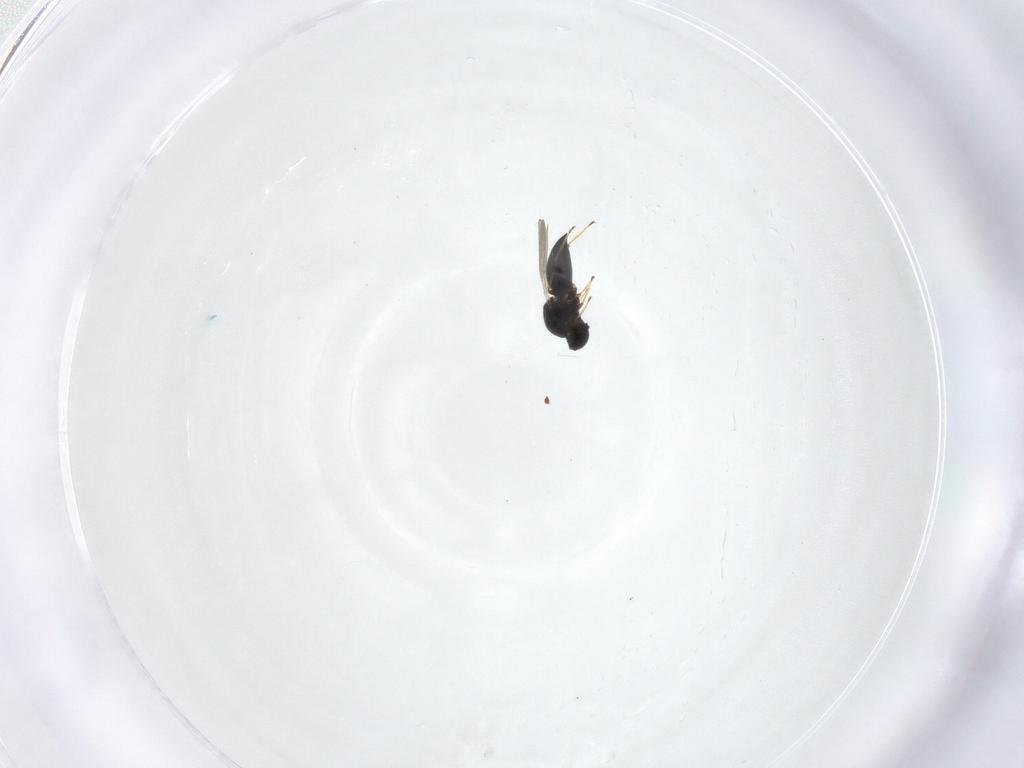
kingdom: Animalia
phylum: Arthropoda
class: Insecta
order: Hymenoptera
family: Platygastridae
